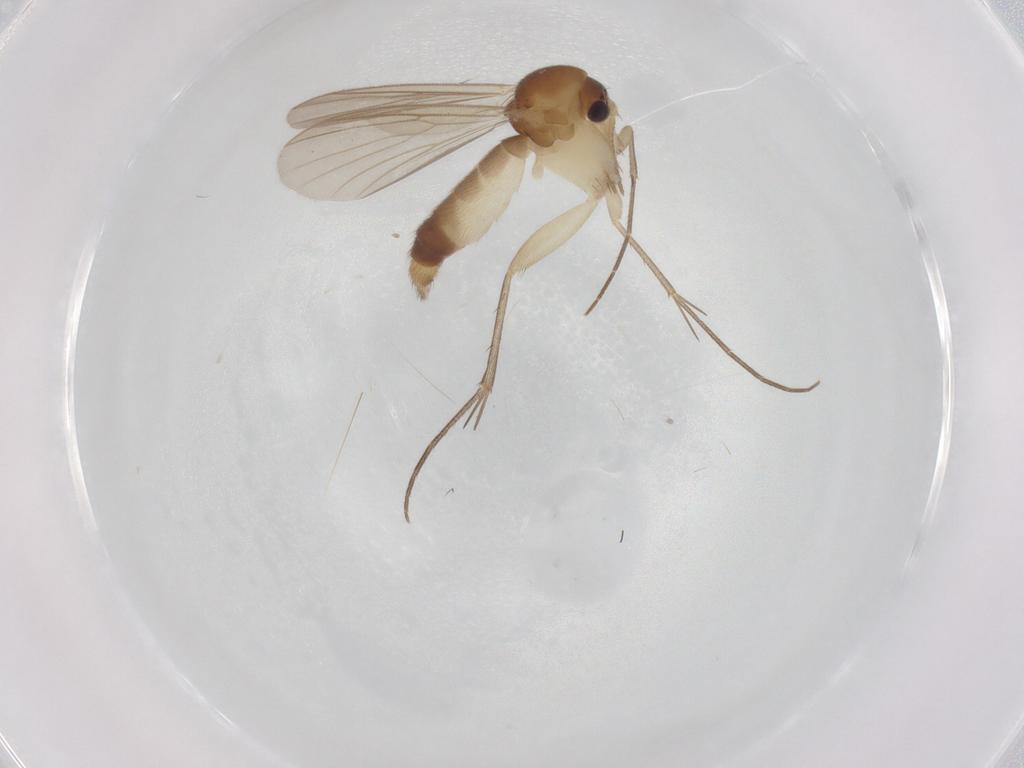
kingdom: Animalia
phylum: Arthropoda
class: Insecta
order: Diptera
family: Mycetophilidae
